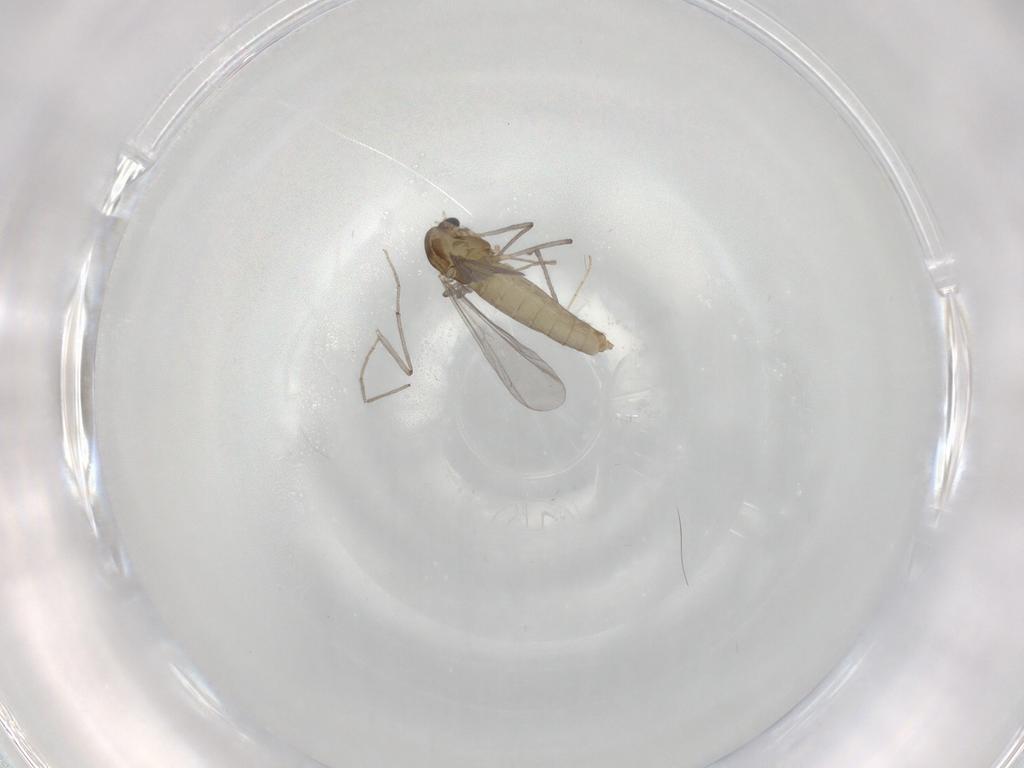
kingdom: Animalia
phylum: Arthropoda
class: Insecta
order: Diptera
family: Chironomidae
